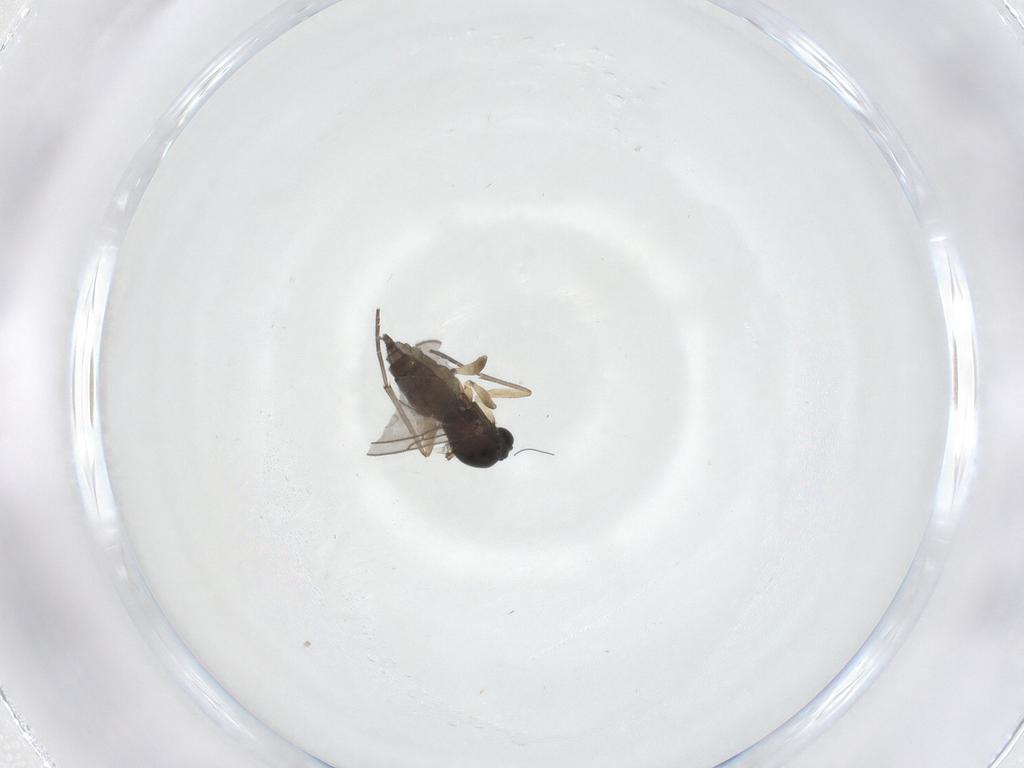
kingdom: Animalia
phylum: Arthropoda
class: Insecta
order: Diptera
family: Sciaridae
